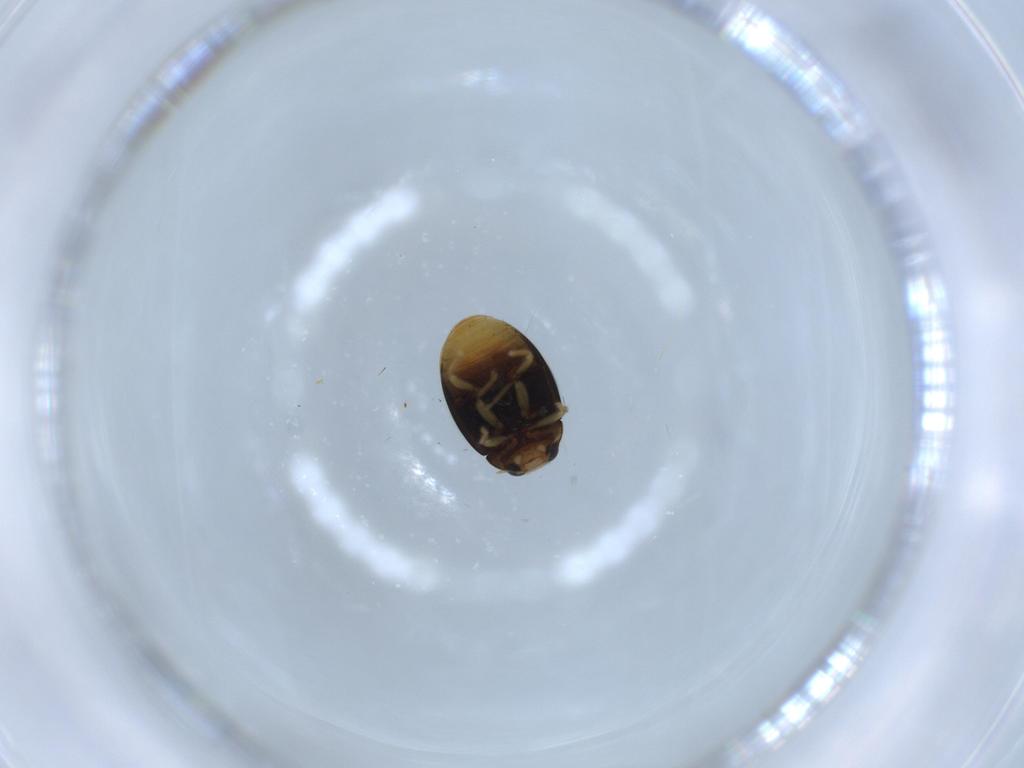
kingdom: Animalia
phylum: Arthropoda
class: Insecta
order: Coleoptera
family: Coccinellidae
